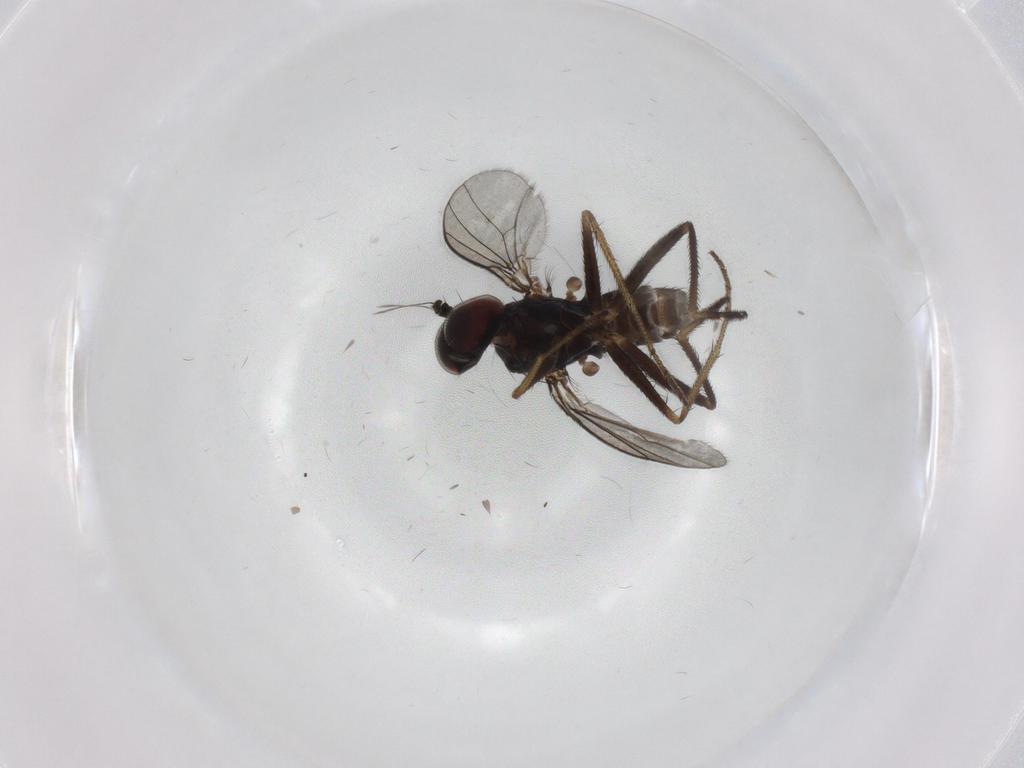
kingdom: Animalia
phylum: Arthropoda
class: Insecta
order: Diptera
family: Dolichopodidae
